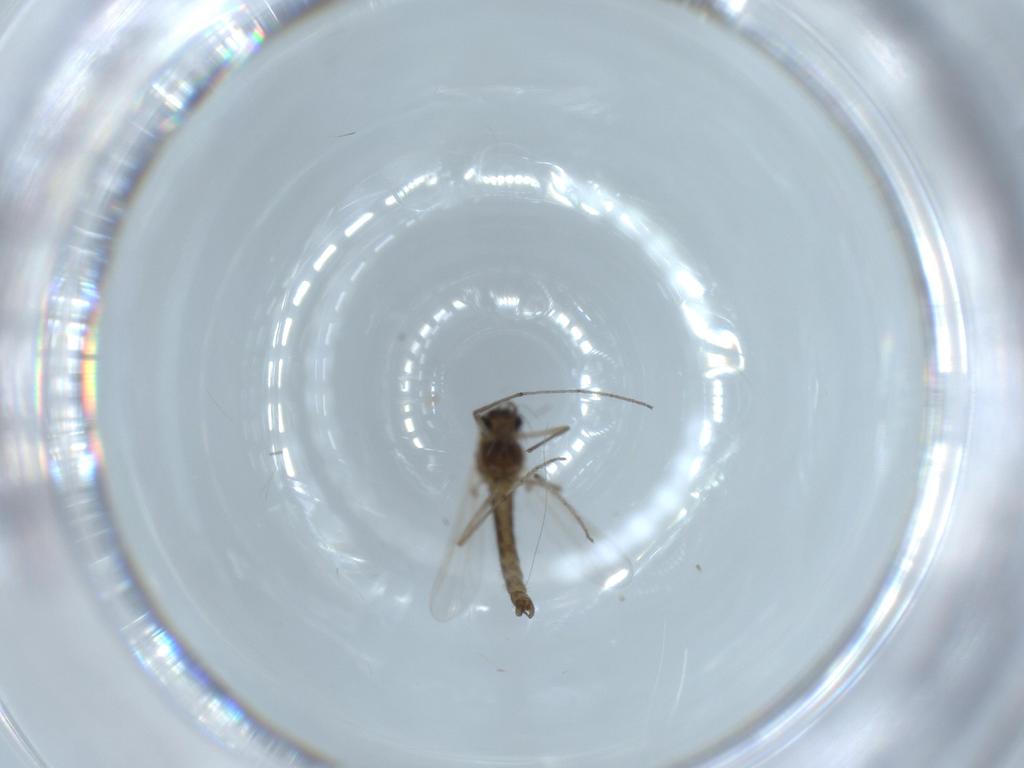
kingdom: Animalia
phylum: Arthropoda
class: Insecta
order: Diptera
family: Chironomidae
